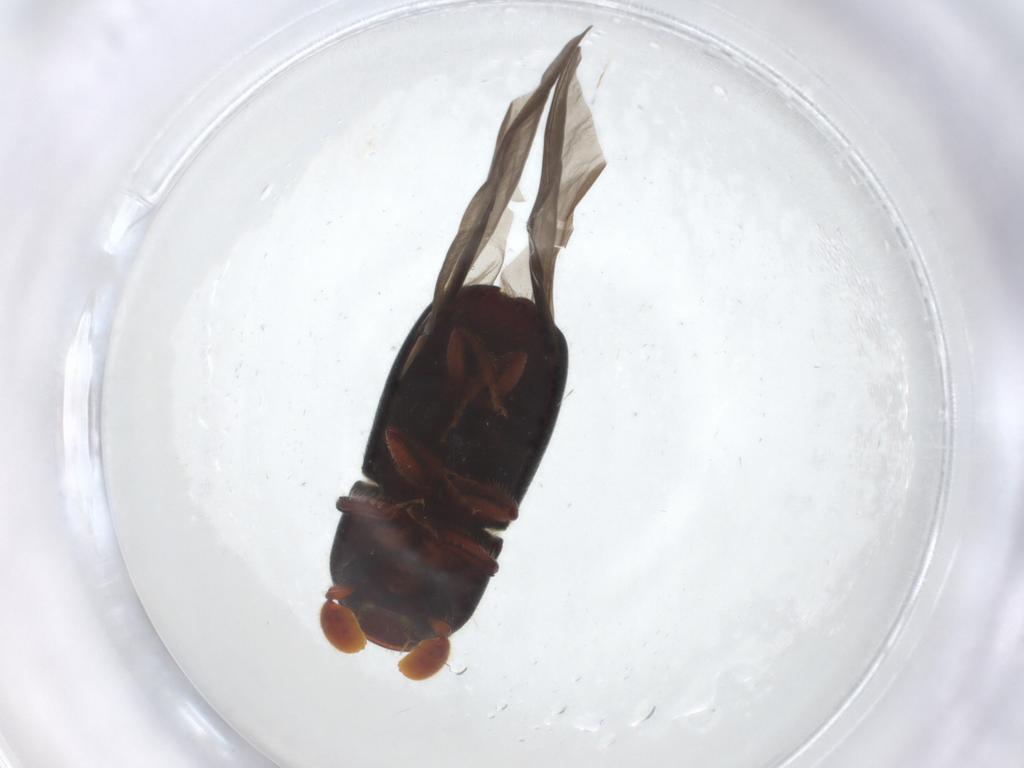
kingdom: Animalia
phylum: Arthropoda
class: Insecta
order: Coleoptera
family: Curculionidae
